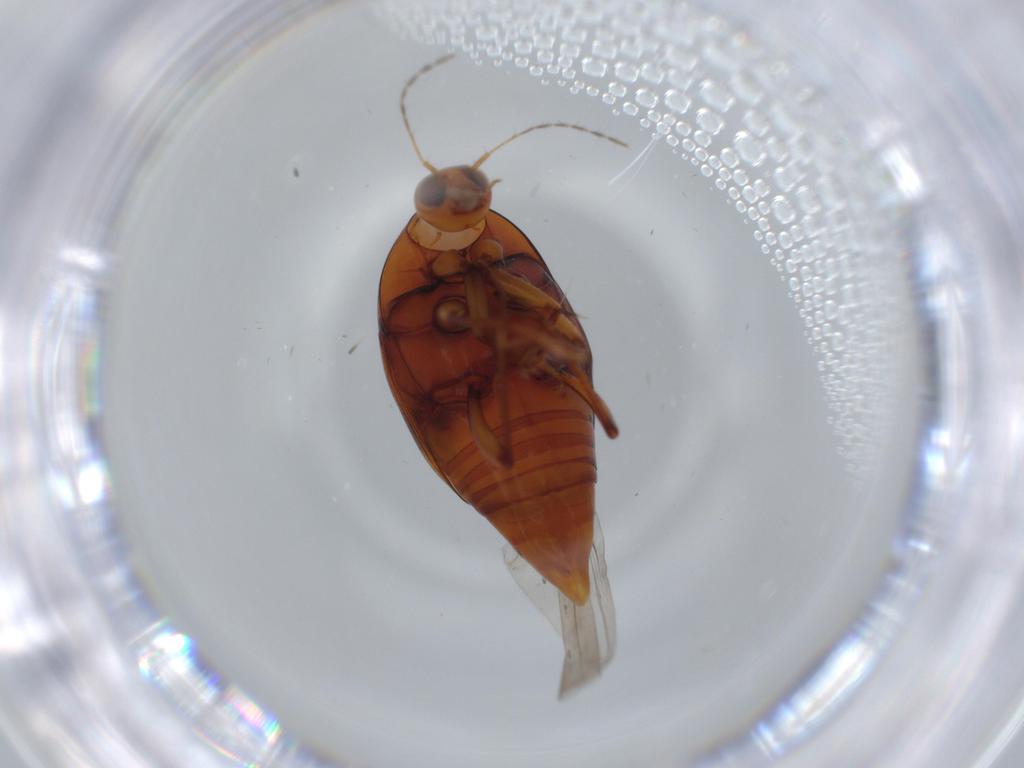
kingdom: Animalia
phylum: Arthropoda
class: Insecta
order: Coleoptera
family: Staphylinidae
